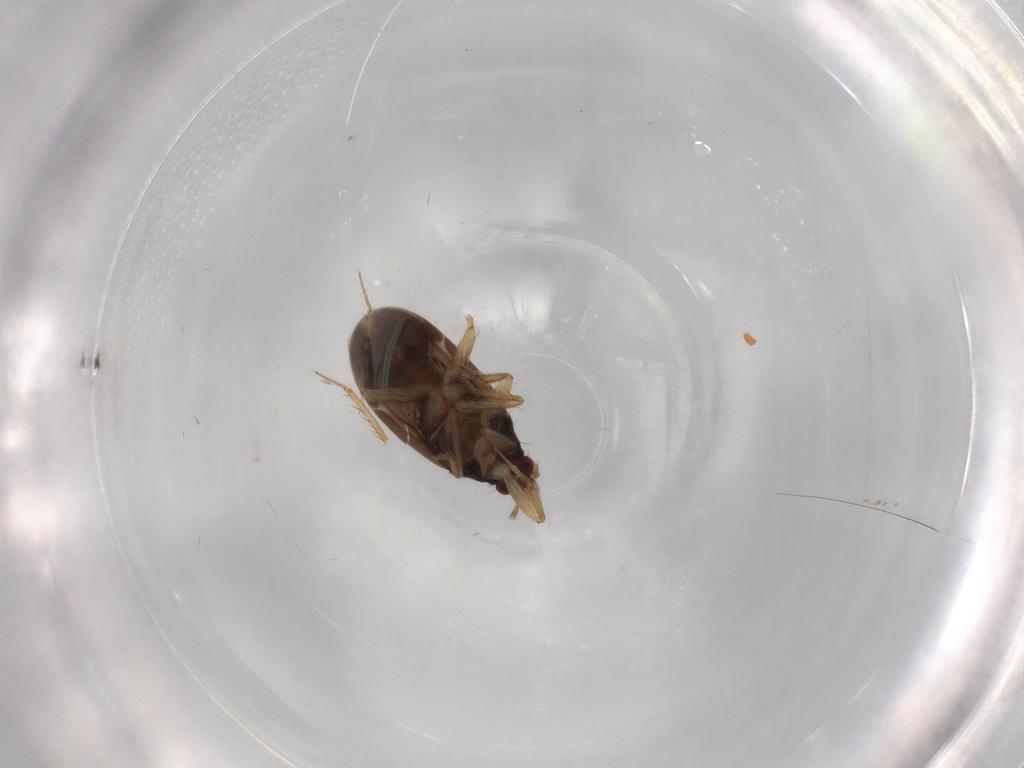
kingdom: Animalia
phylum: Arthropoda
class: Insecta
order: Hemiptera
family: Ceratocombidae
